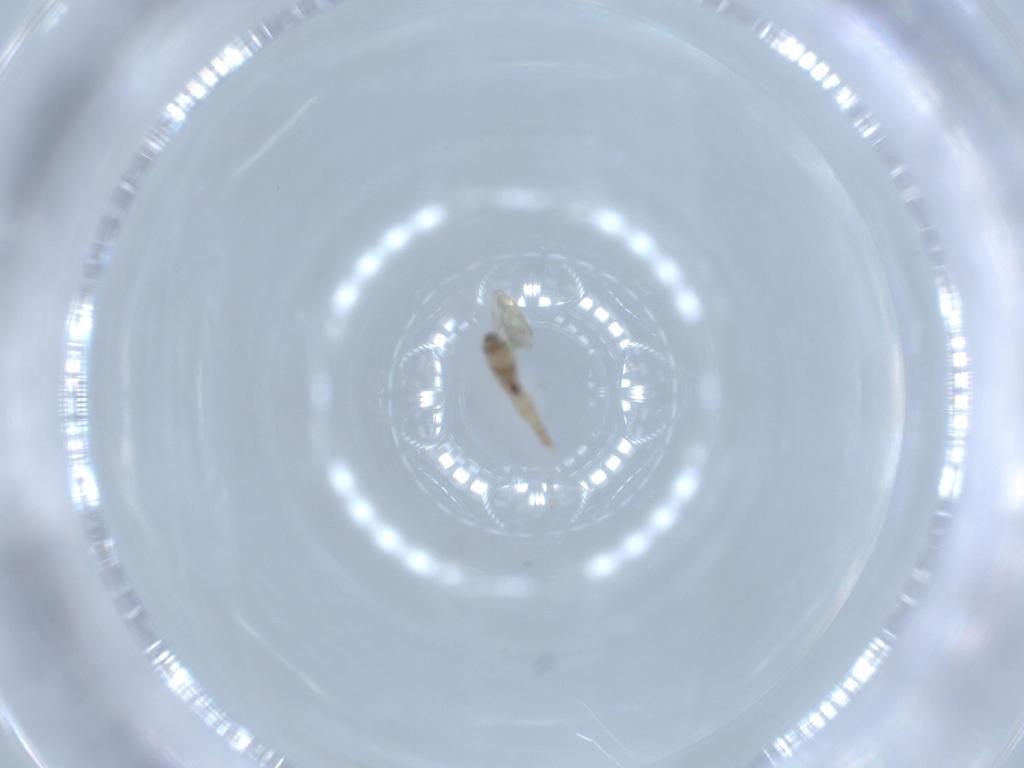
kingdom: Animalia
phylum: Arthropoda
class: Insecta
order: Diptera
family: Cecidomyiidae
